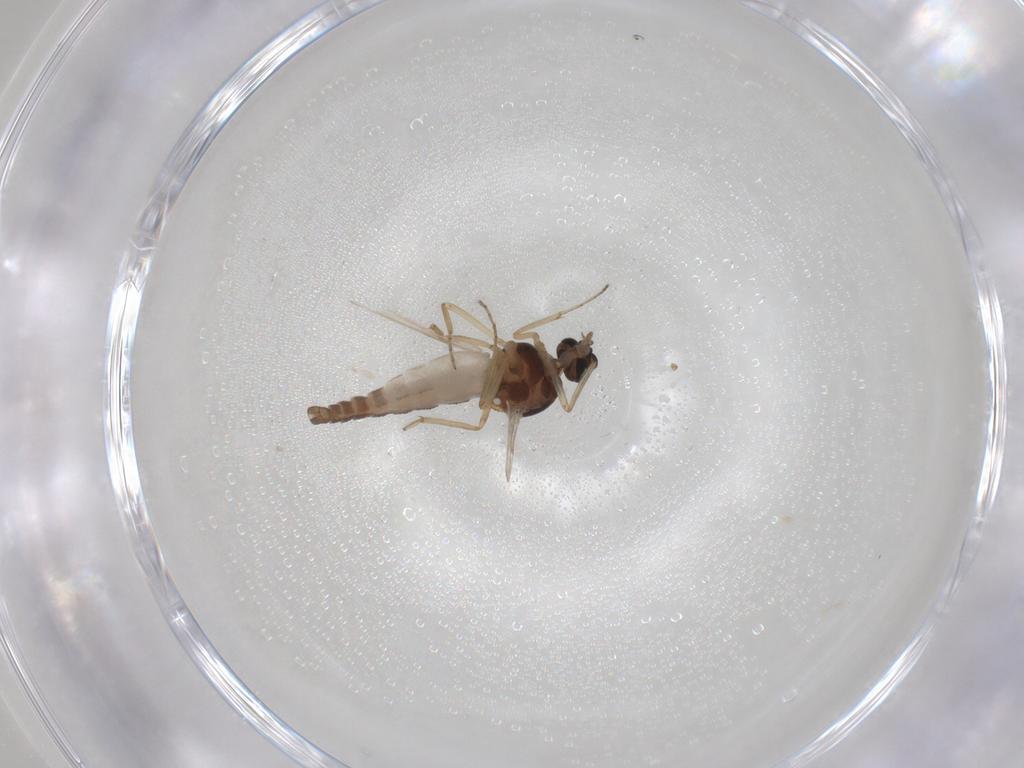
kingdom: Animalia
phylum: Arthropoda
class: Insecta
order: Diptera
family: Ceratopogonidae
